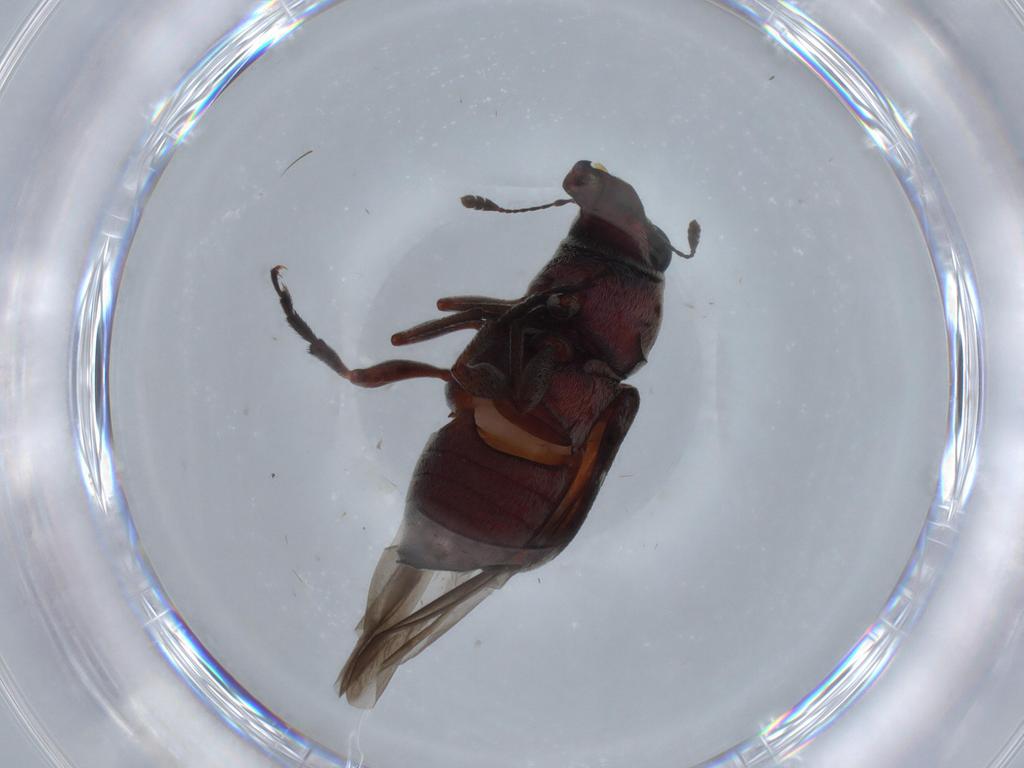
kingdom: Animalia
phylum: Arthropoda
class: Insecta
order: Coleoptera
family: Anthribidae
